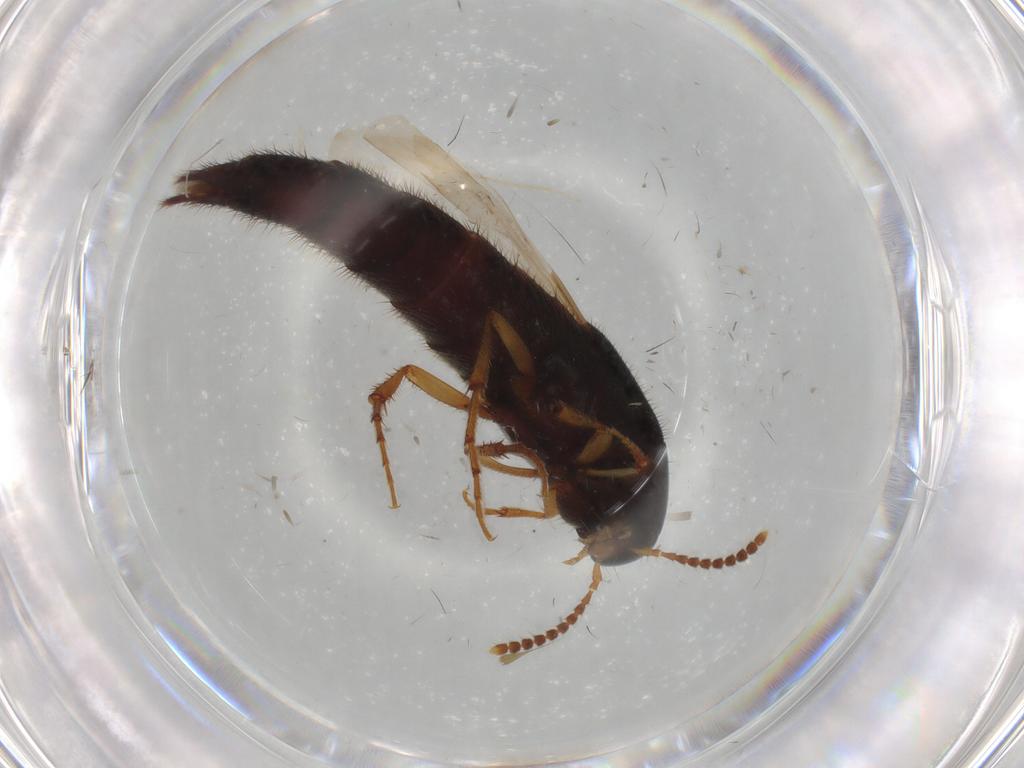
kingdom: Animalia
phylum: Arthropoda
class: Insecta
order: Coleoptera
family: Staphylinidae
